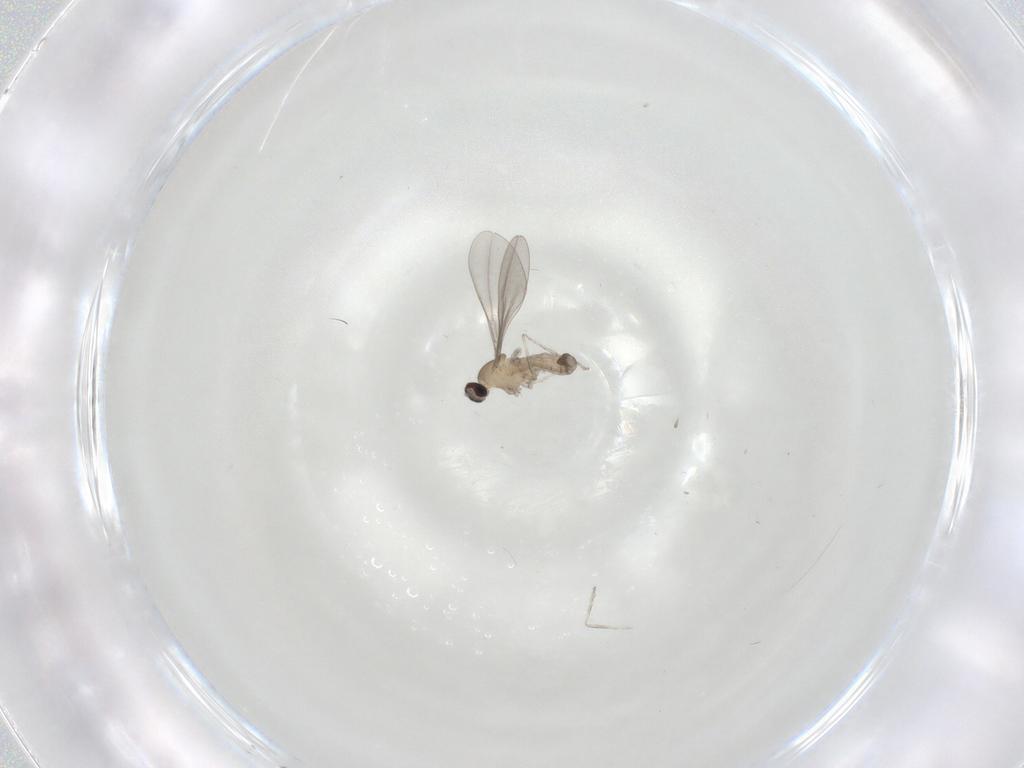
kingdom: Animalia
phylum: Arthropoda
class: Insecta
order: Diptera
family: Cecidomyiidae
